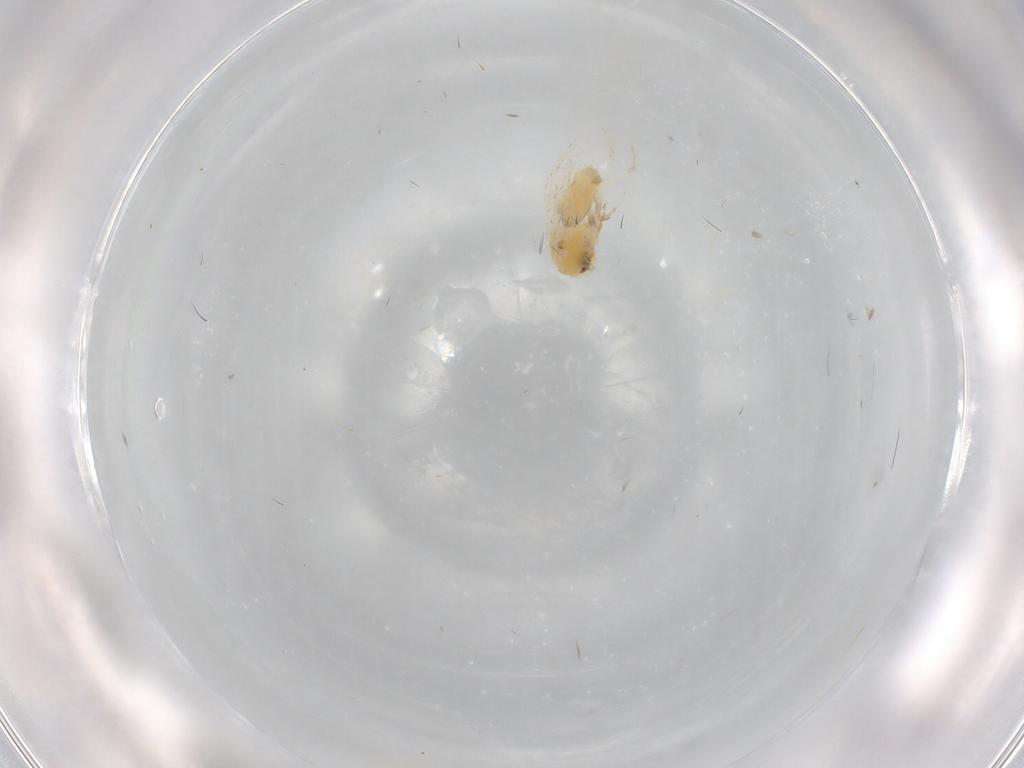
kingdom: Animalia
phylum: Arthropoda
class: Insecta
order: Hemiptera
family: Aleyrodidae
